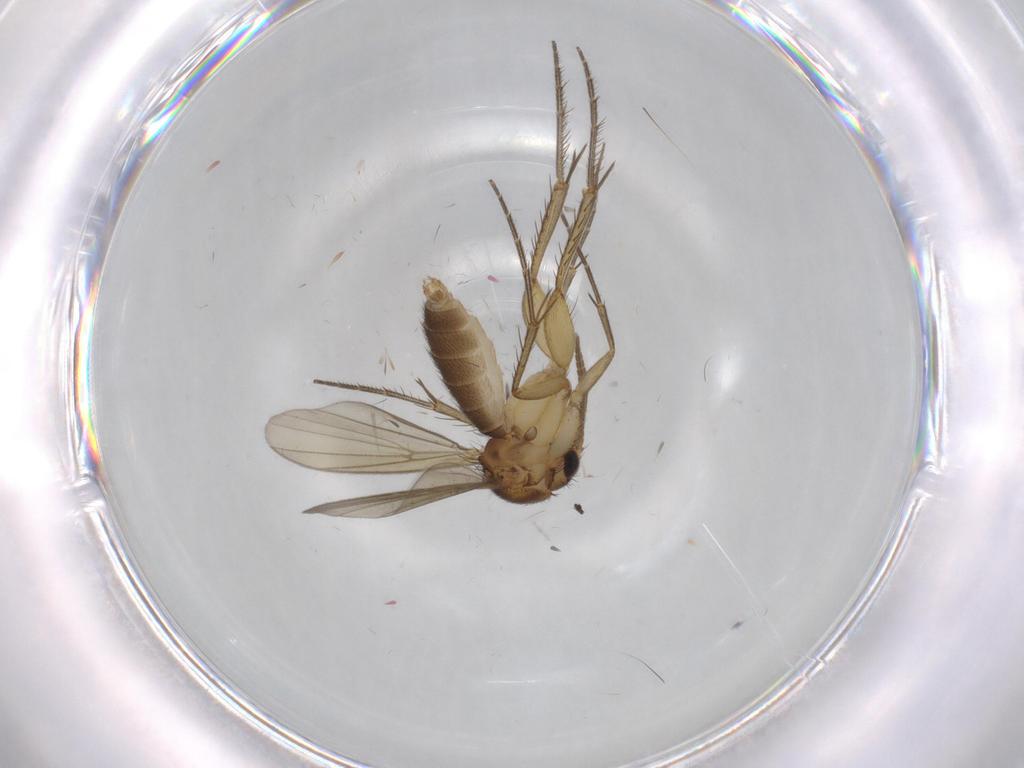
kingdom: Animalia
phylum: Arthropoda
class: Insecta
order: Diptera
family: Mycetophilidae
